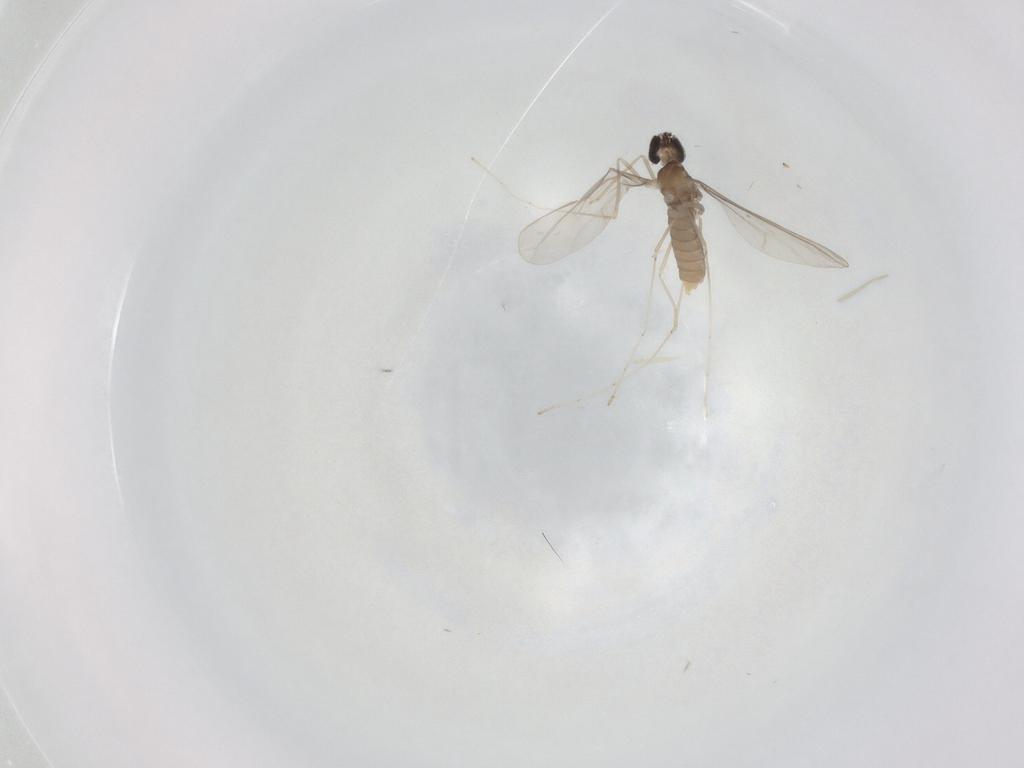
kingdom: Animalia
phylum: Arthropoda
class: Insecta
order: Diptera
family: Cecidomyiidae
